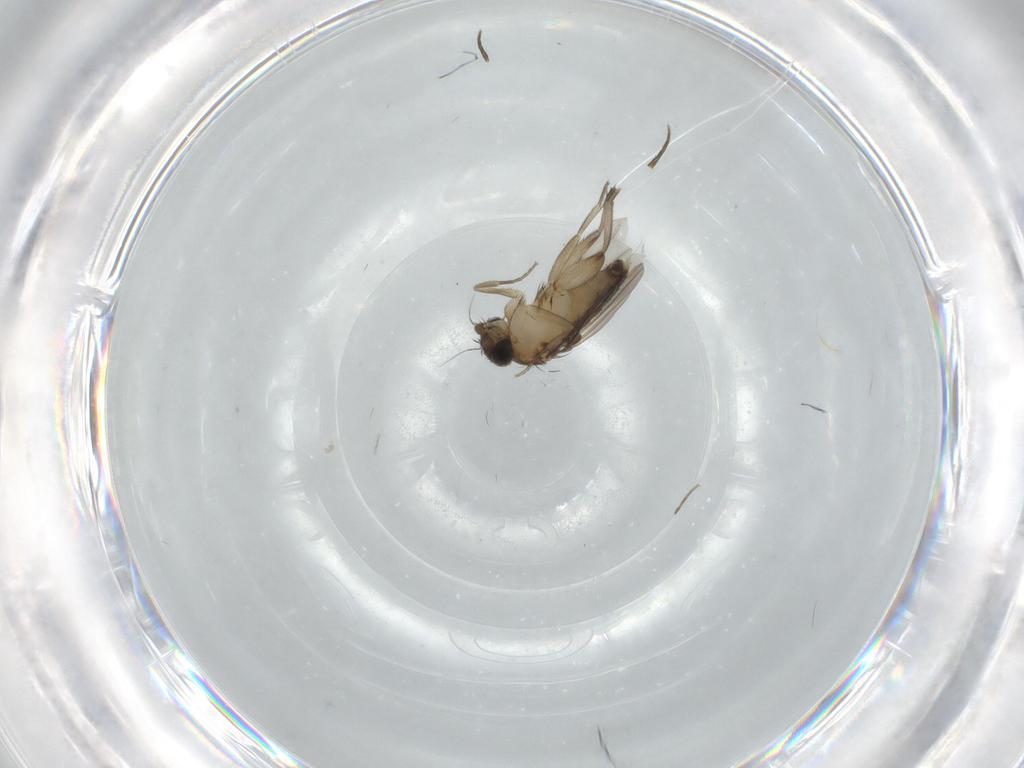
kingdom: Animalia
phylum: Arthropoda
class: Insecta
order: Diptera
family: Phoridae
